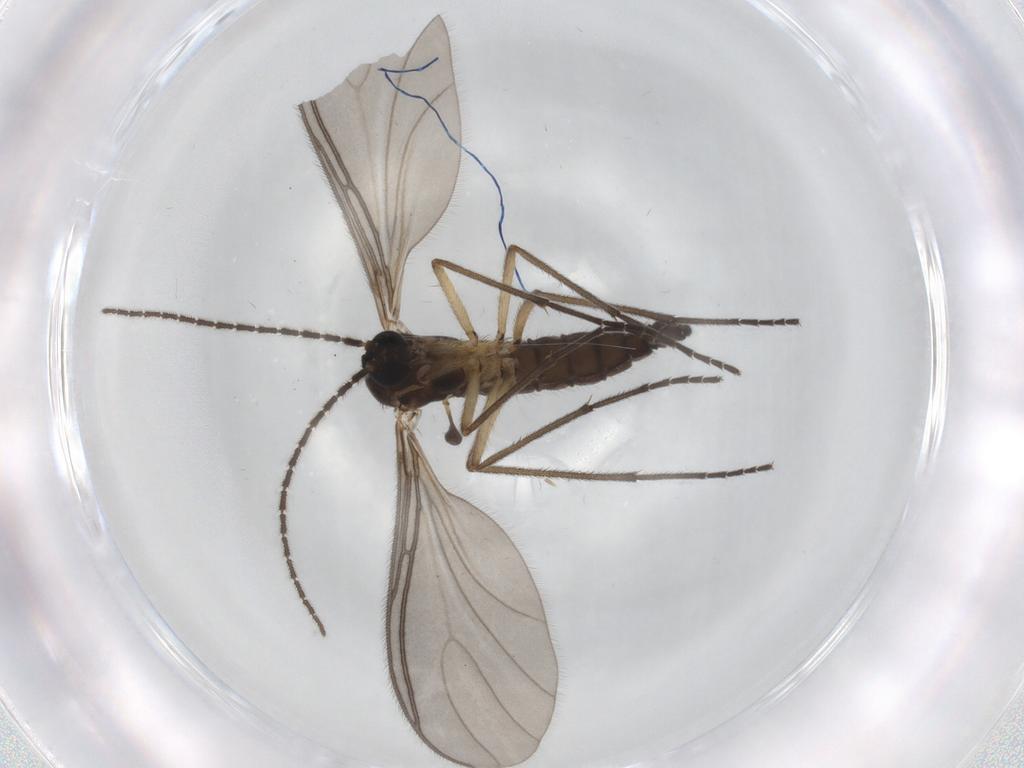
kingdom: Animalia
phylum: Arthropoda
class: Insecta
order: Diptera
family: Sciaridae
